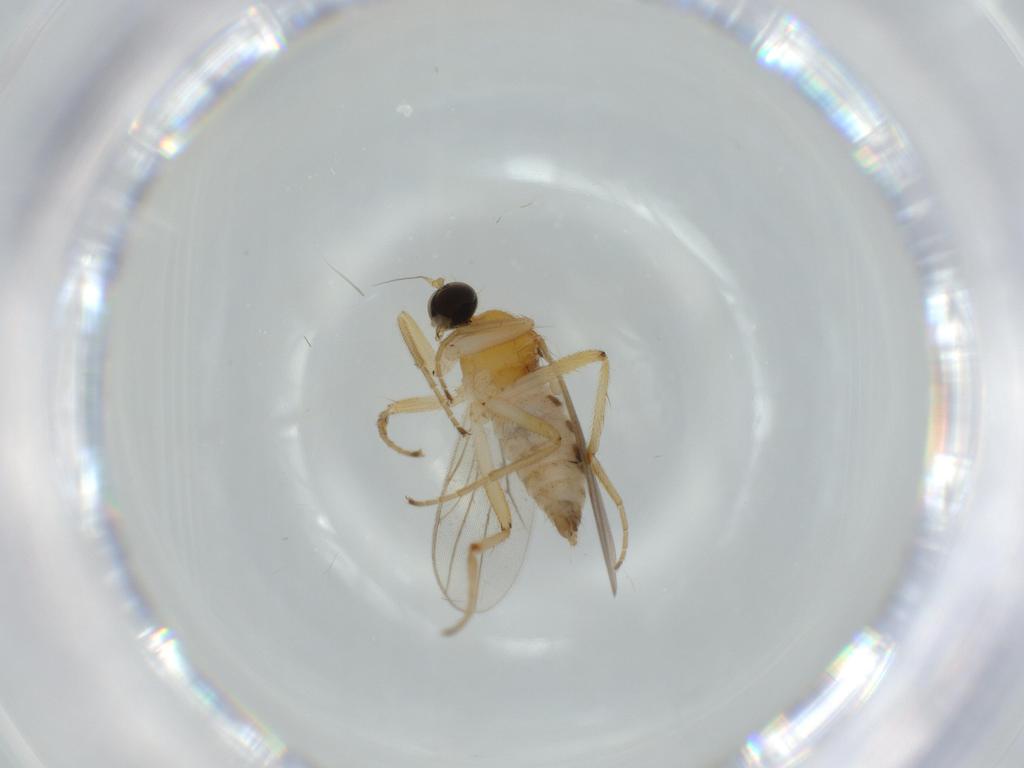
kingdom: Animalia
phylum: Arthropoda
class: Insecta
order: Diptera
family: Hybotidae
